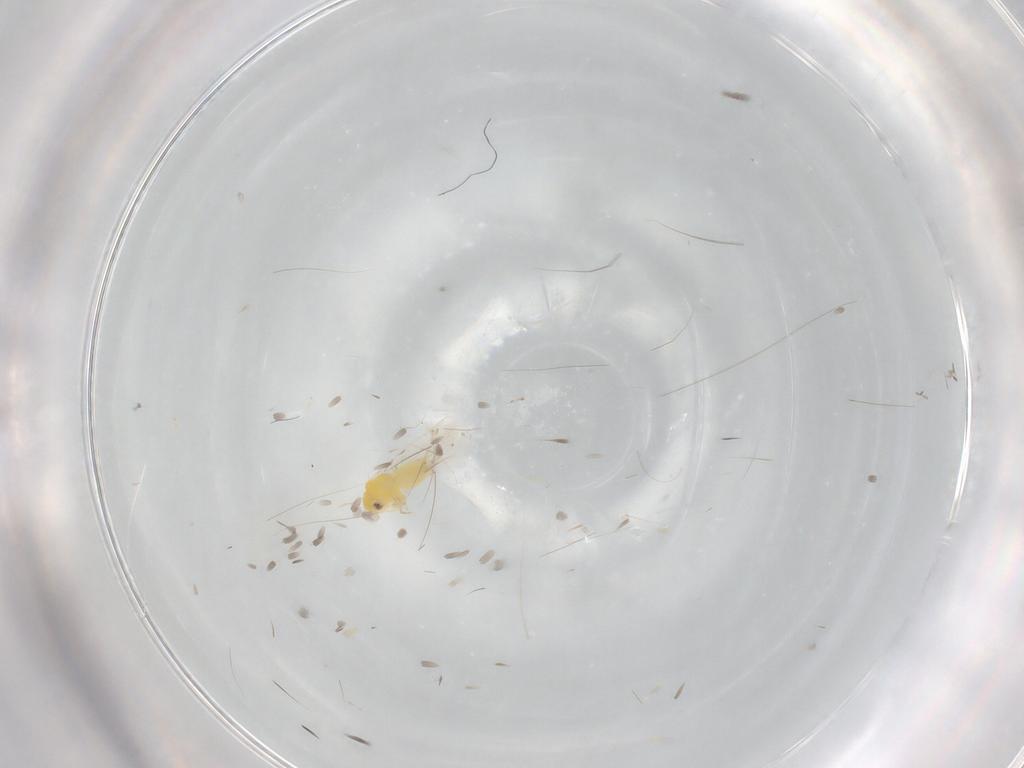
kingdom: Animalia
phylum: Arthropoda
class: Insecta
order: Hemiptera
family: Aleyrodidae
